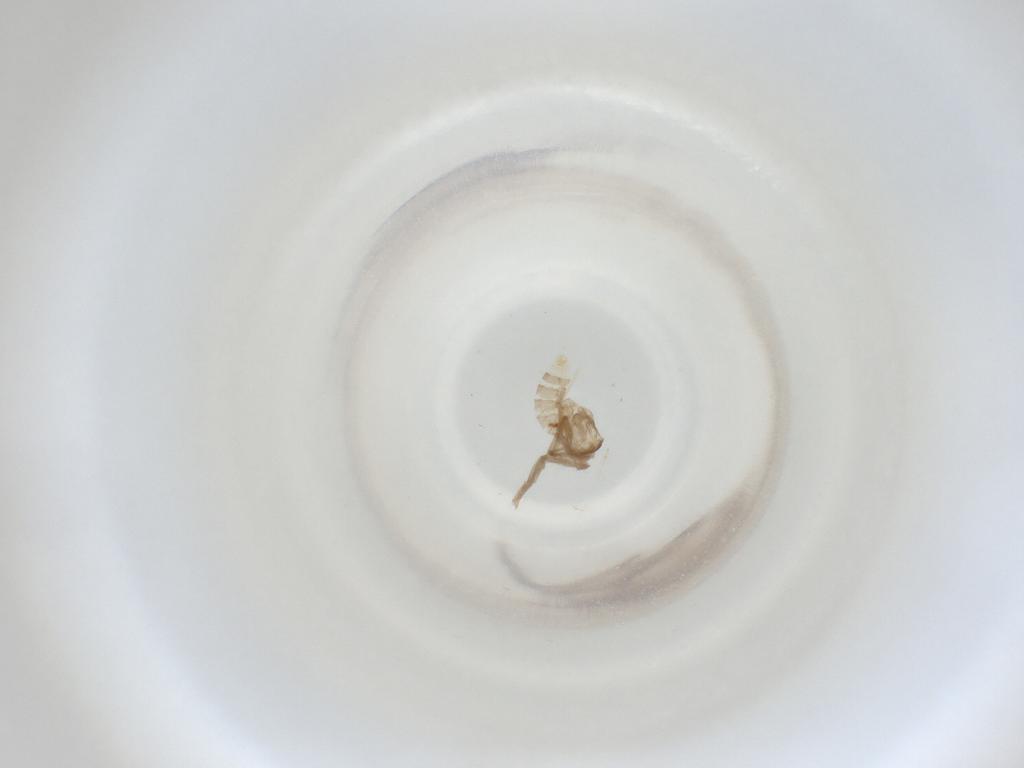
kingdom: Animalia
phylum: Arthropoda
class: Insecta
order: Diptera
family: Cecidomyiidae
